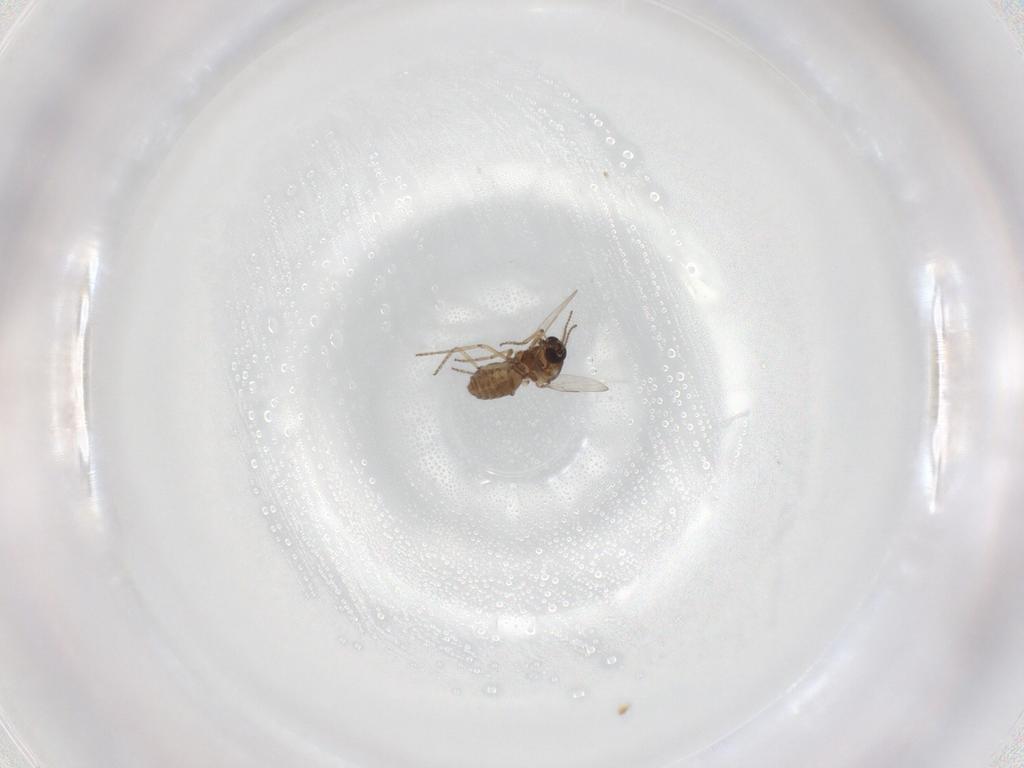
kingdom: Animalia
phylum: Arthropoda
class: Insecta
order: Diptera
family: Ceratopogonidae
